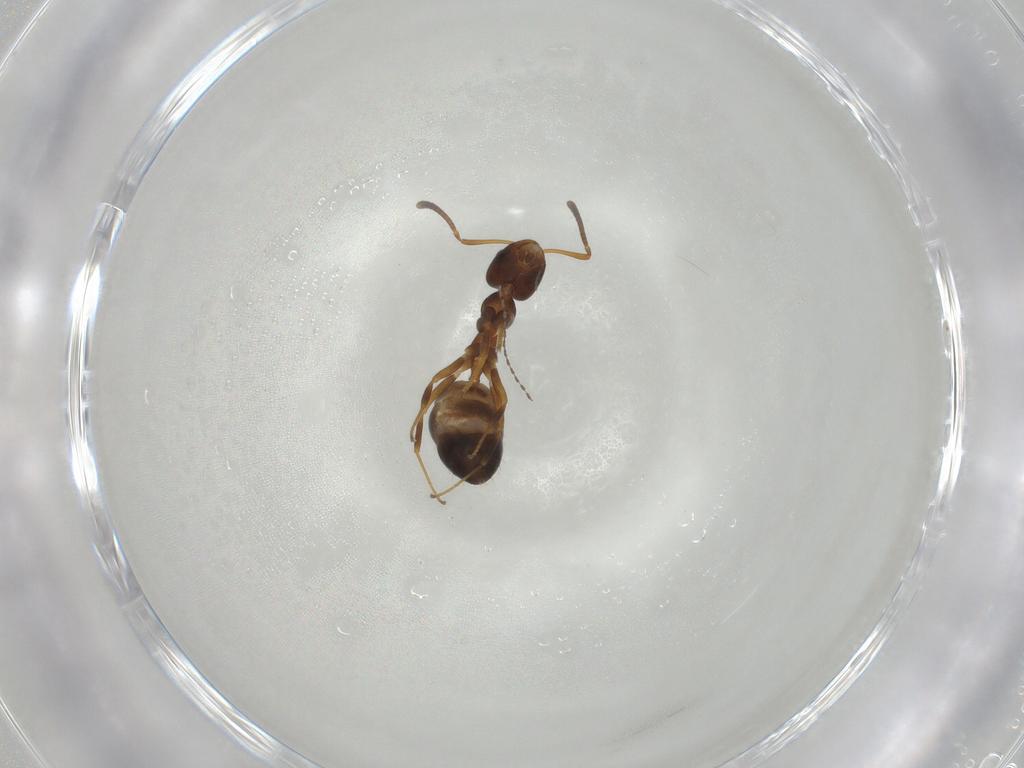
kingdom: Animalia
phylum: Arthropoda
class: Insecta
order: Hymenoptera
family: Formicidae
